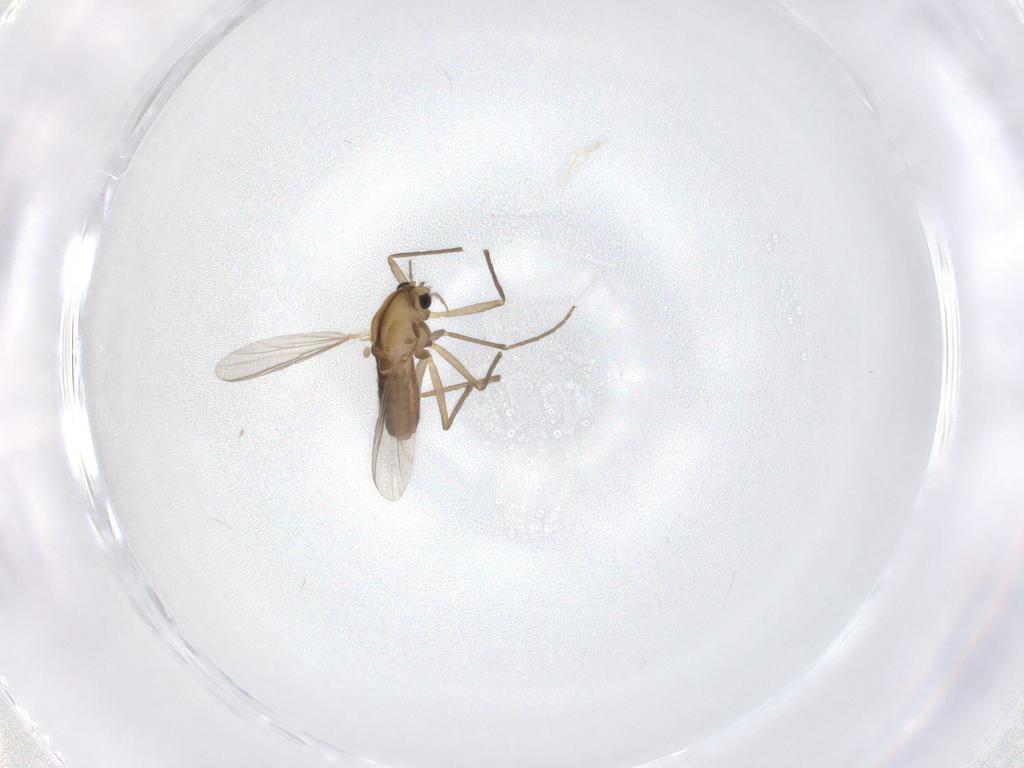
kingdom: Animalia
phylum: Arthropoda
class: Insecta
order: Diptera
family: Chironomidae
